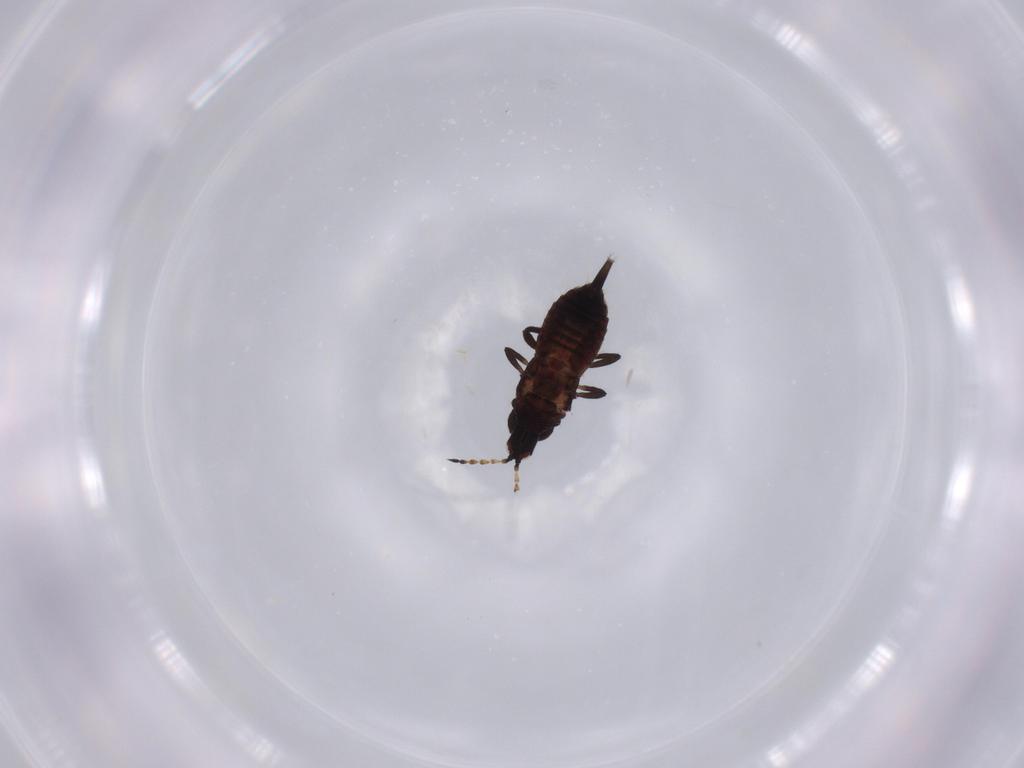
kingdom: Animalia
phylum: Arthropoda
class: Insecta
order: Thysanoptera
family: Phlaeothripidae
